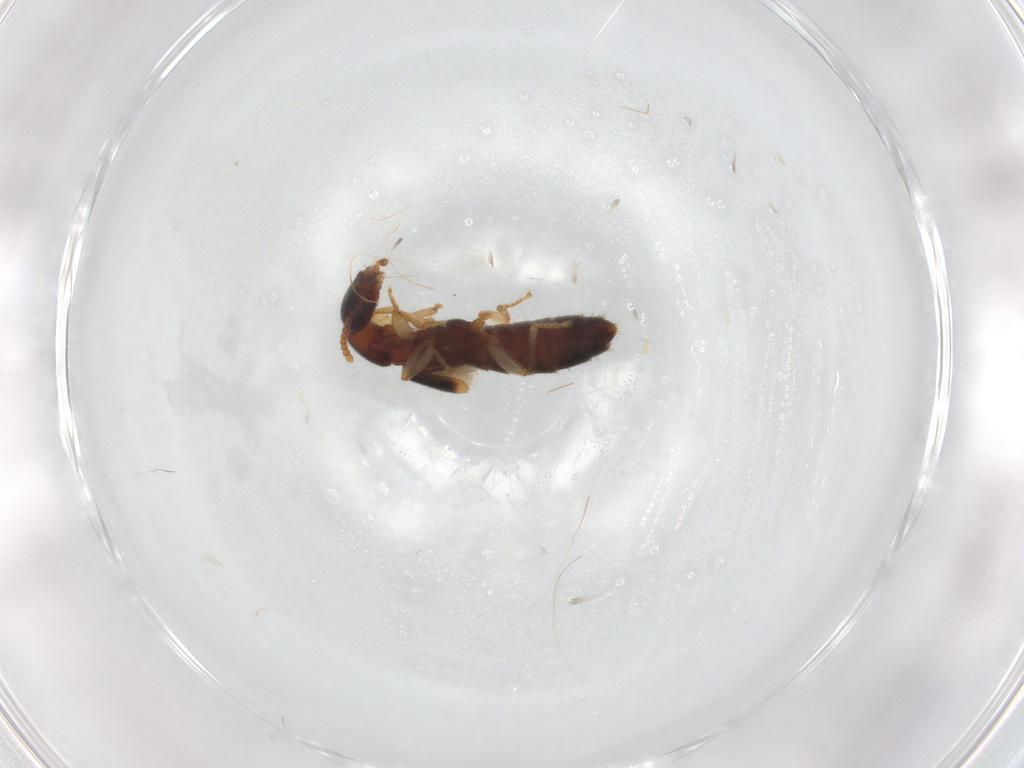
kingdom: Animalia
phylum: Arthropoda
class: Insecta
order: Coleoptera
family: Staphylinidae
